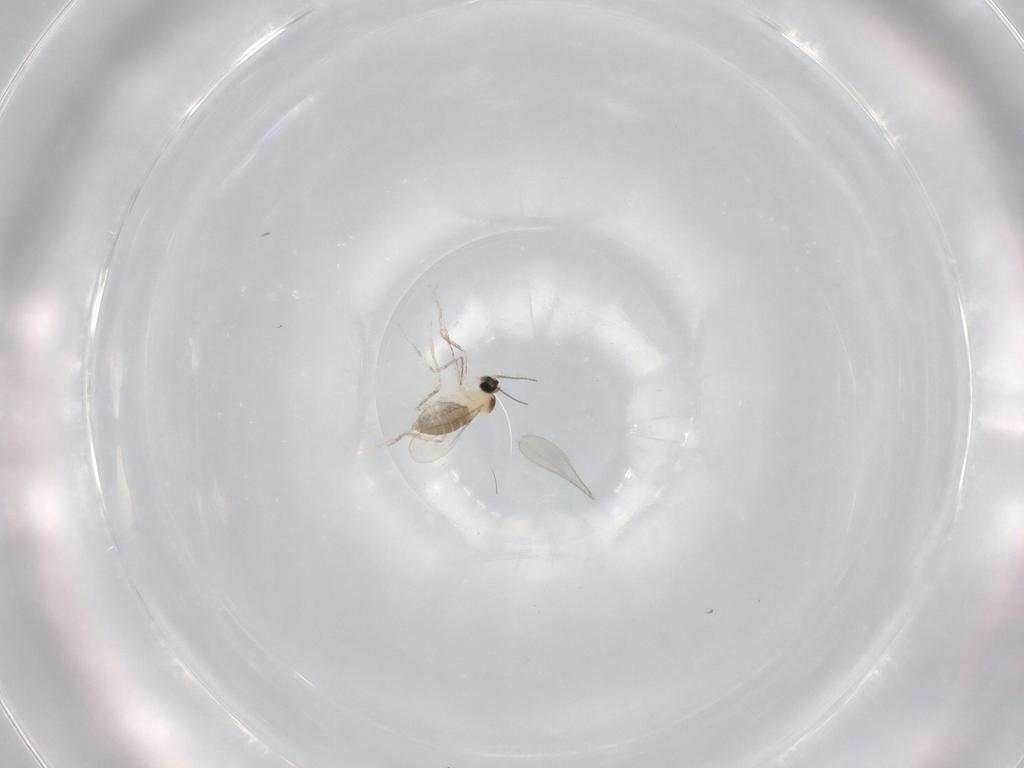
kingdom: Animalia
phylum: Arthropoda
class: Insecta
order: Diptera
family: Cecidomyiidae
